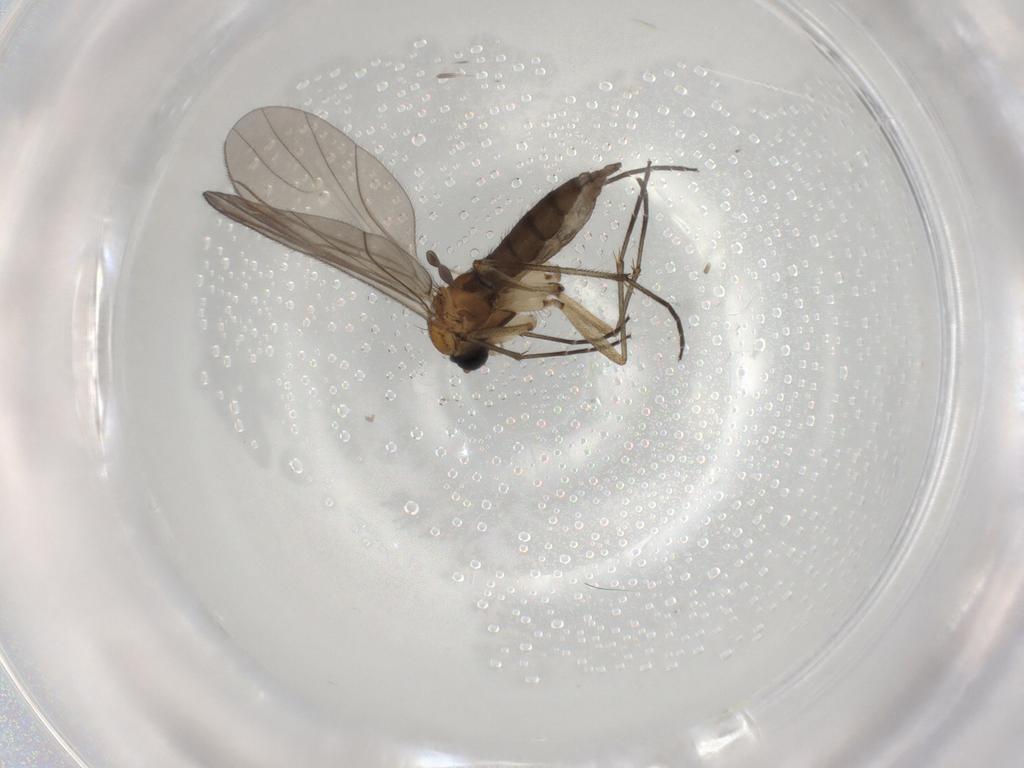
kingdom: Animalia
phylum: Arthropoda
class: Insecta
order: Diptera
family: Sciaridae
